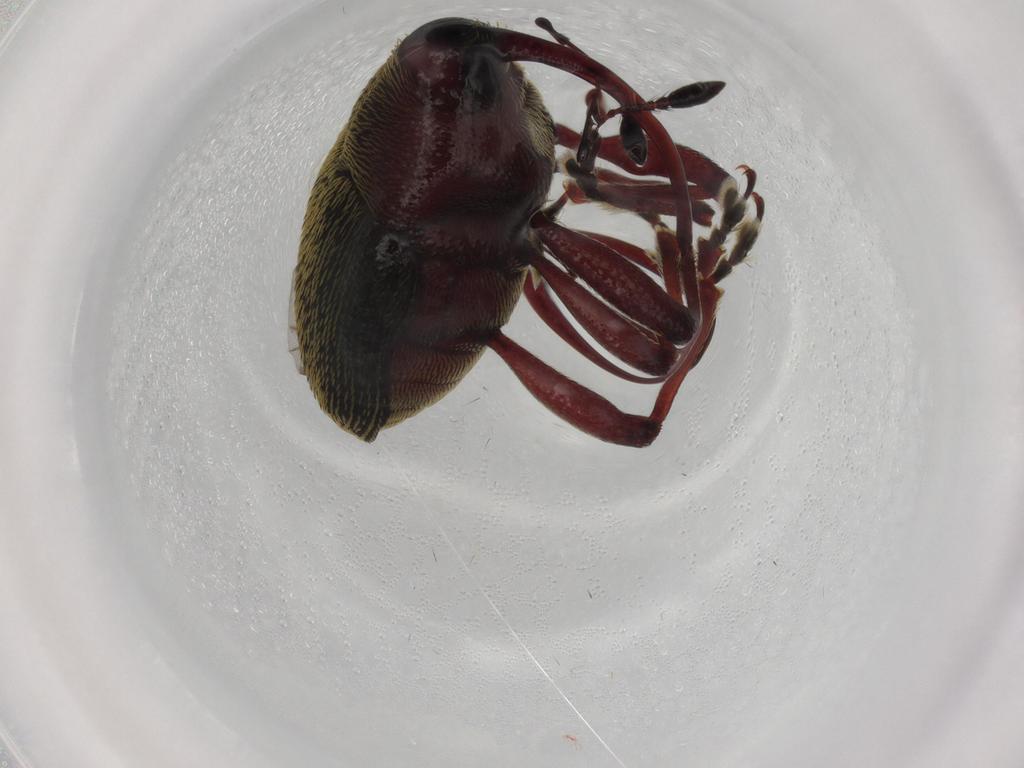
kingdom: Animalia
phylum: Arthropoda
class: Insecta
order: Coleoptera
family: Curculionidae
